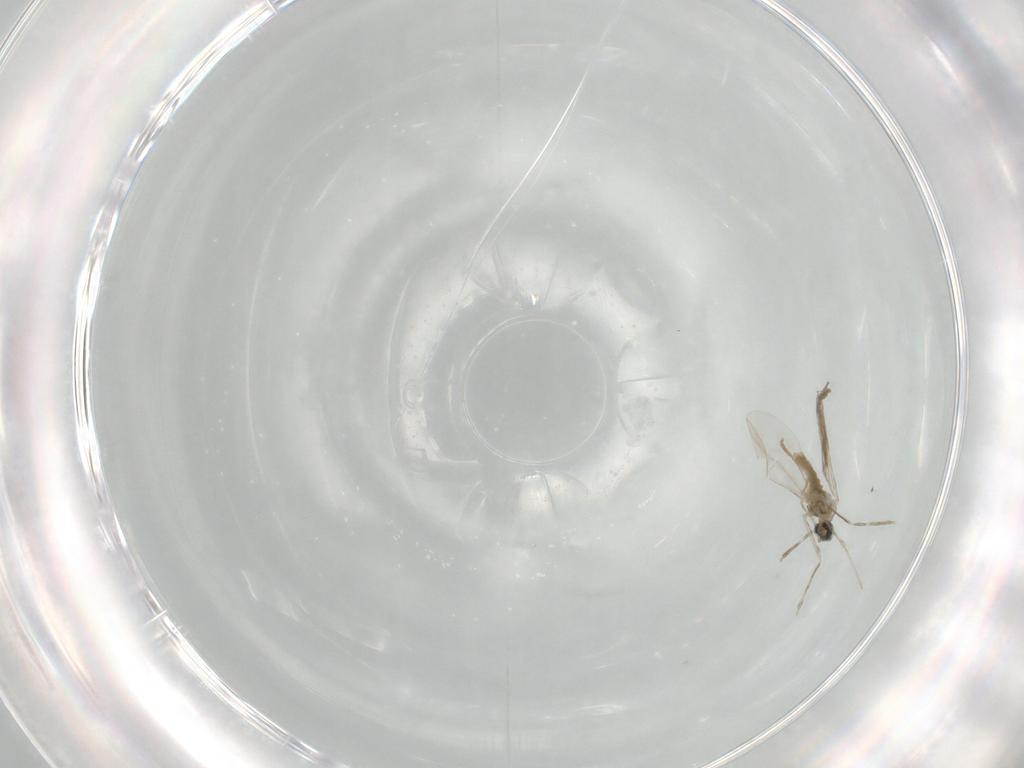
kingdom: Animalia
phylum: Arthropoda
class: Insecta
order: Diptera
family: Cecidomyiidae
